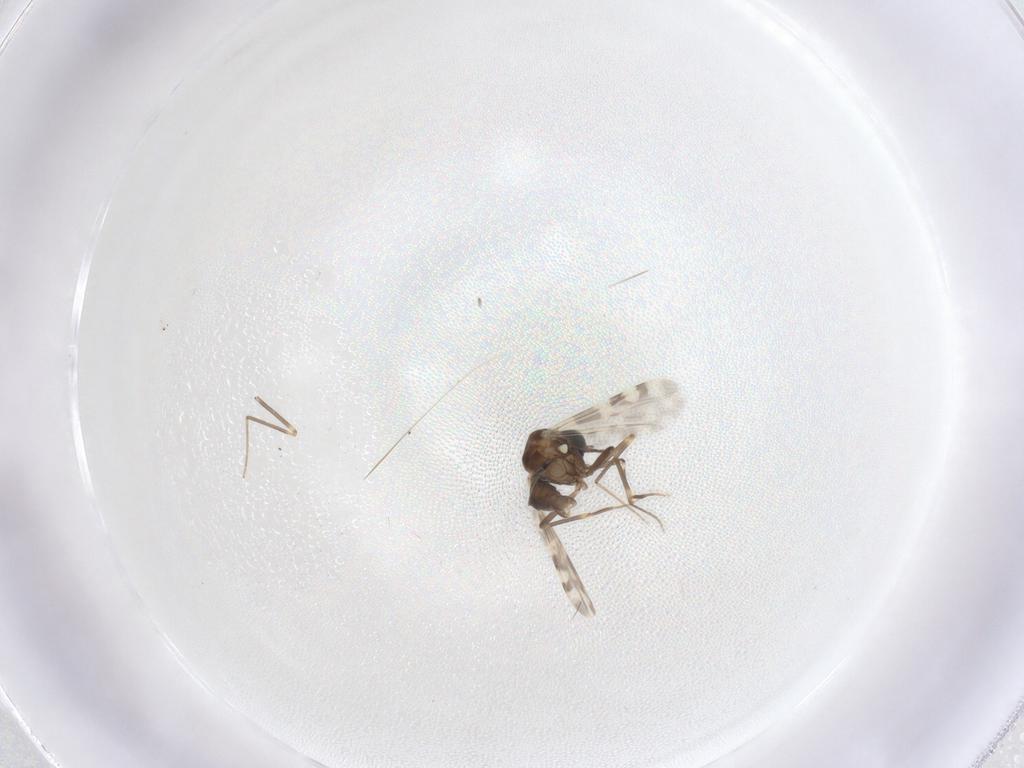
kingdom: Animalia
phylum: Arthropoda
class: Insecta
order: Diptera
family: Ceratopogonidae
